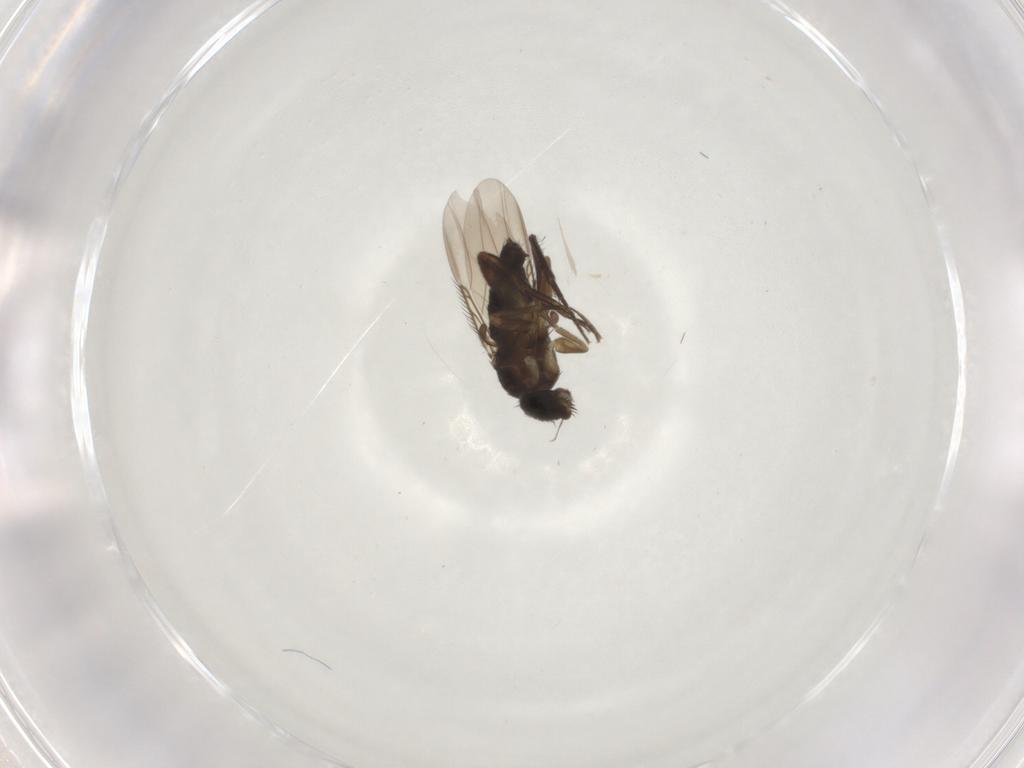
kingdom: Animalia
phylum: Arthropoda
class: Insecta
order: Diptera
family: Phoridae
